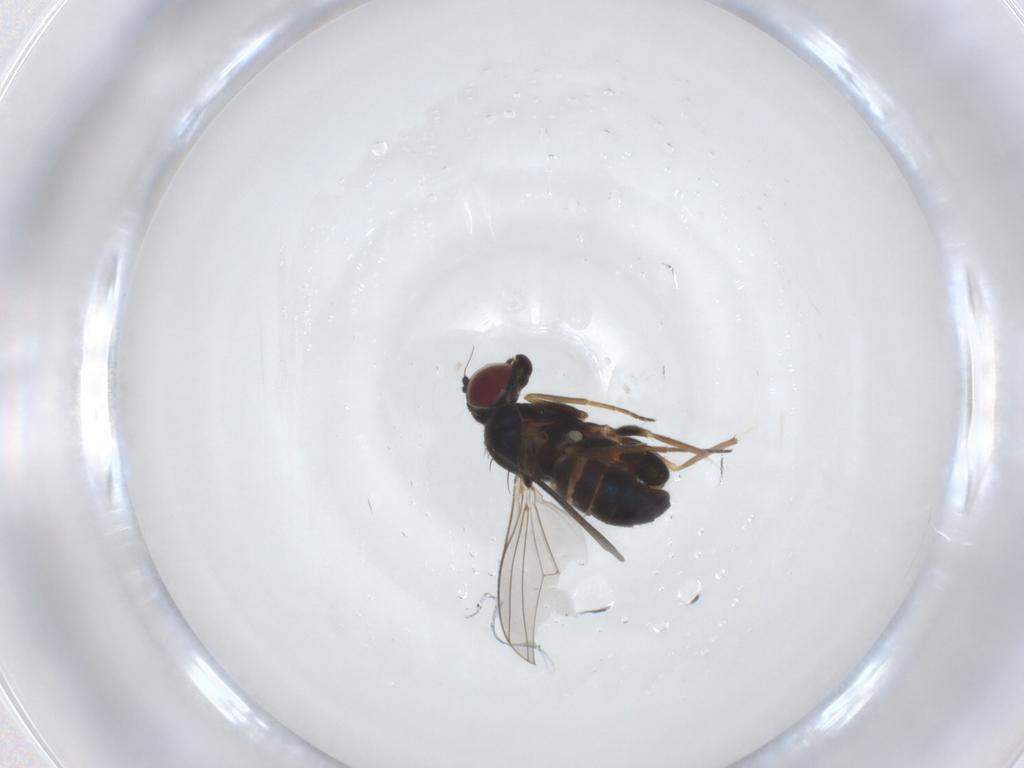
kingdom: Animalia
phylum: Arthropoda
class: Insecta
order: Diptera
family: Dolichopodidae
